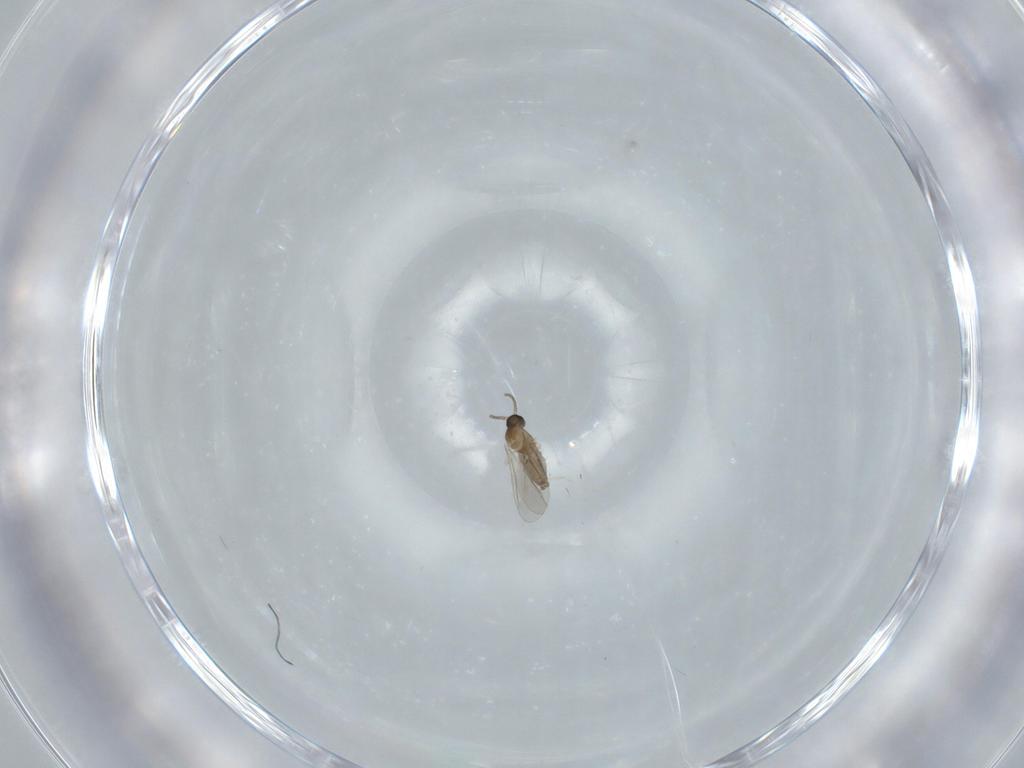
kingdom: Animalia
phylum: Arthropoda
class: Insecta
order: Diptera
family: Cecidomyiidae
